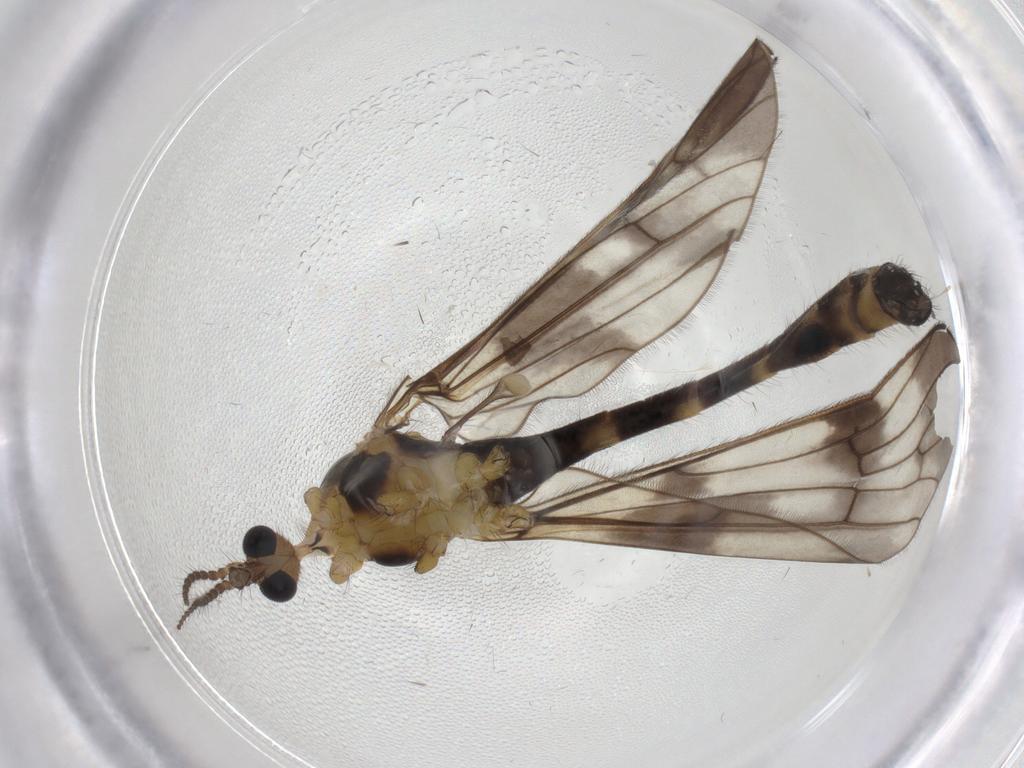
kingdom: Animalia
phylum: Arthropoda
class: Insecta
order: Diptera
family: Drosophilidae
